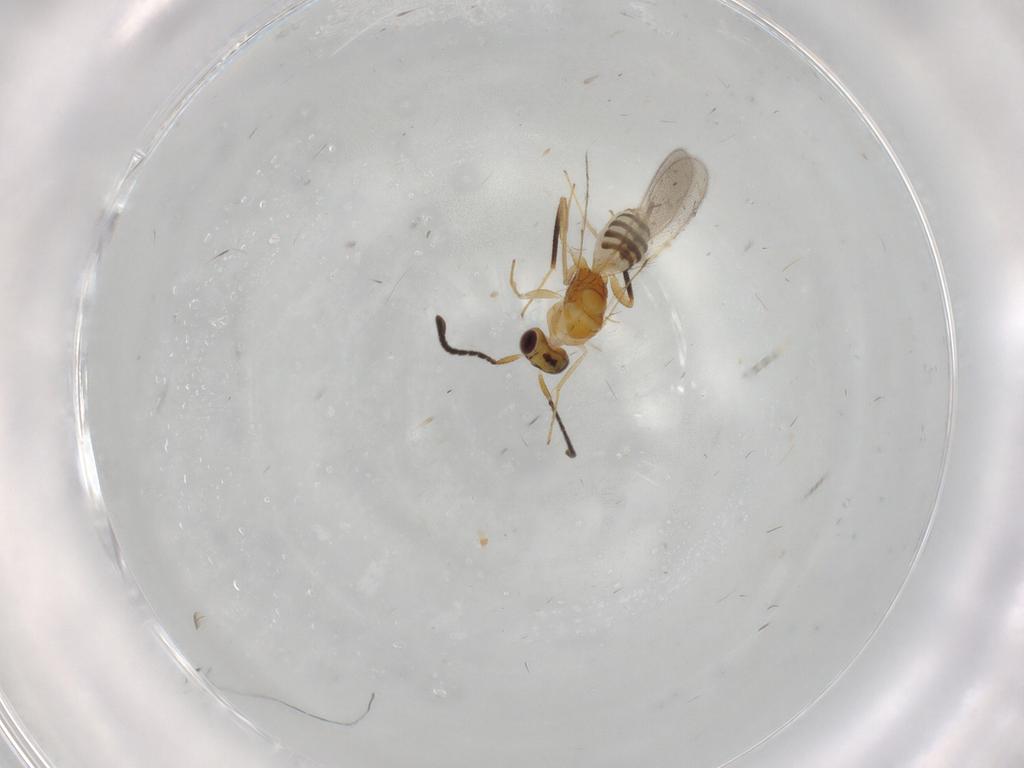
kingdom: Animalia
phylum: Arthropoda
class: Insecta
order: Hymenoptera
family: Mymaridae
